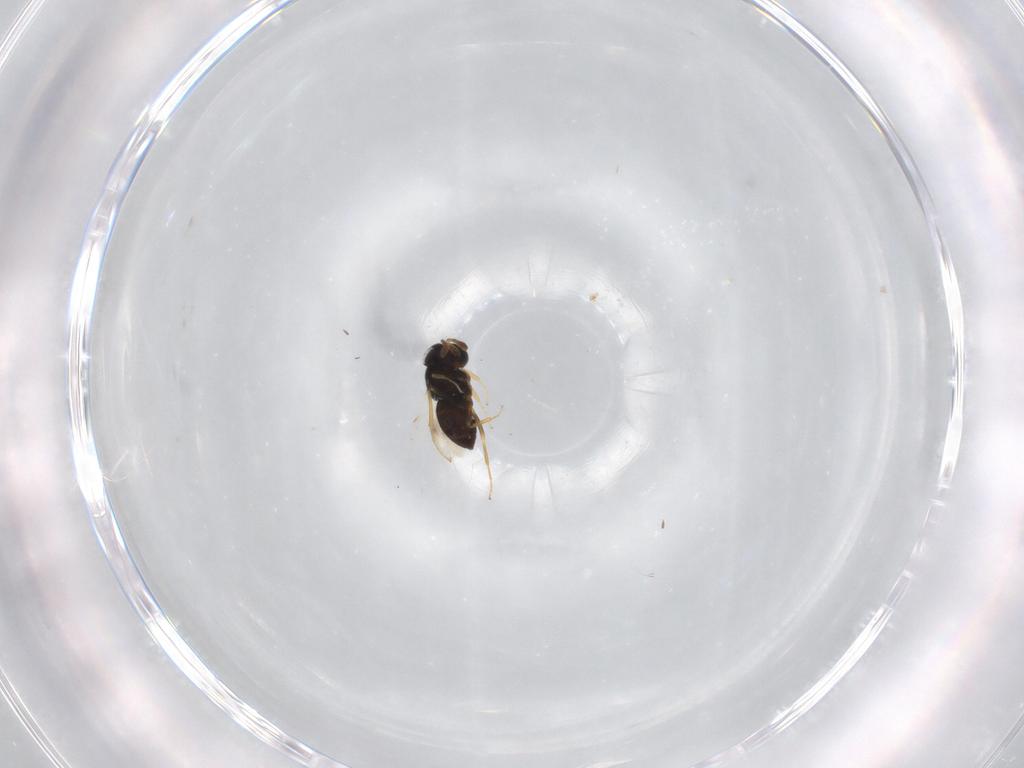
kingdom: Animalia
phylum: Arthropoda
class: Insecta
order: Hymenoptera
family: Scelionidae
